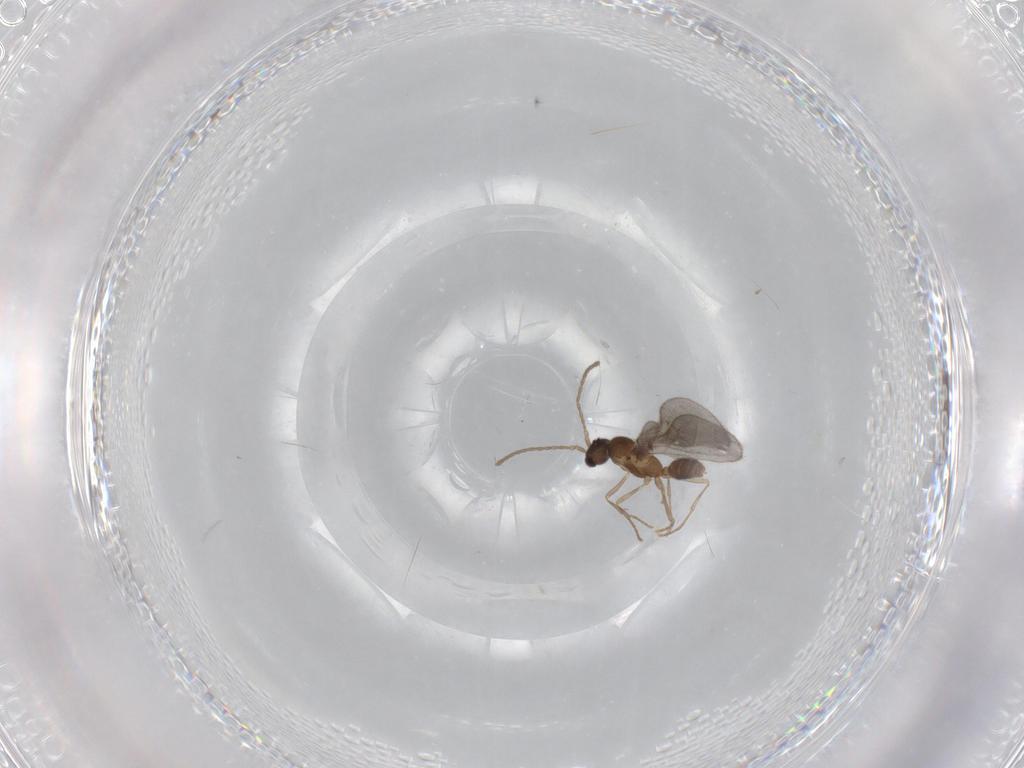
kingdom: Animalia
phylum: Arthropoda
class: Insecta
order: Hymenoptera
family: Formicidae
